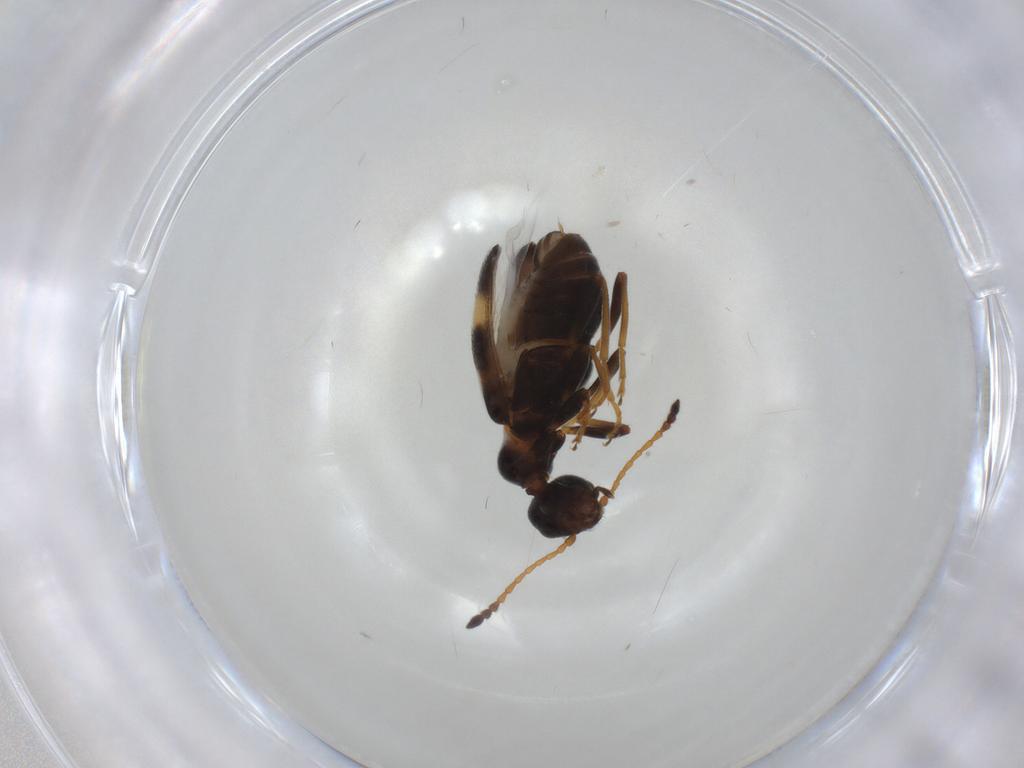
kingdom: Animalia
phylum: Arthropoda
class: Insecta
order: Coleoptera
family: Anthicidae
